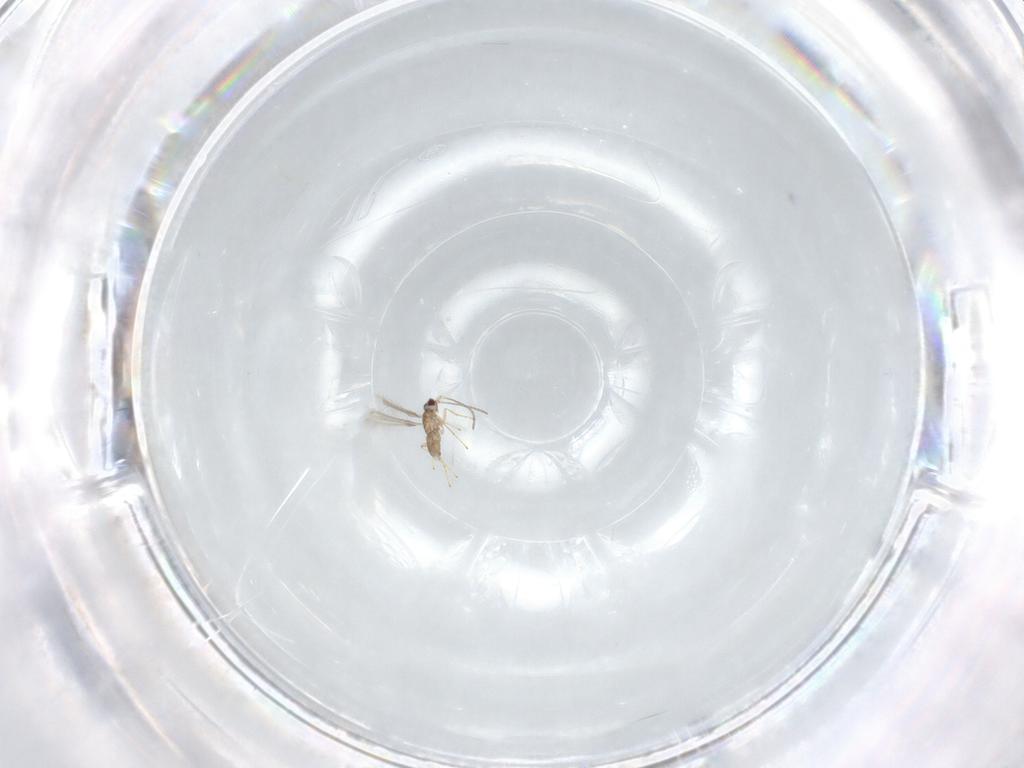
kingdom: Animalia
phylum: Arthropoda
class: Insecta
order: Hymenoptera
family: Mymaridae
